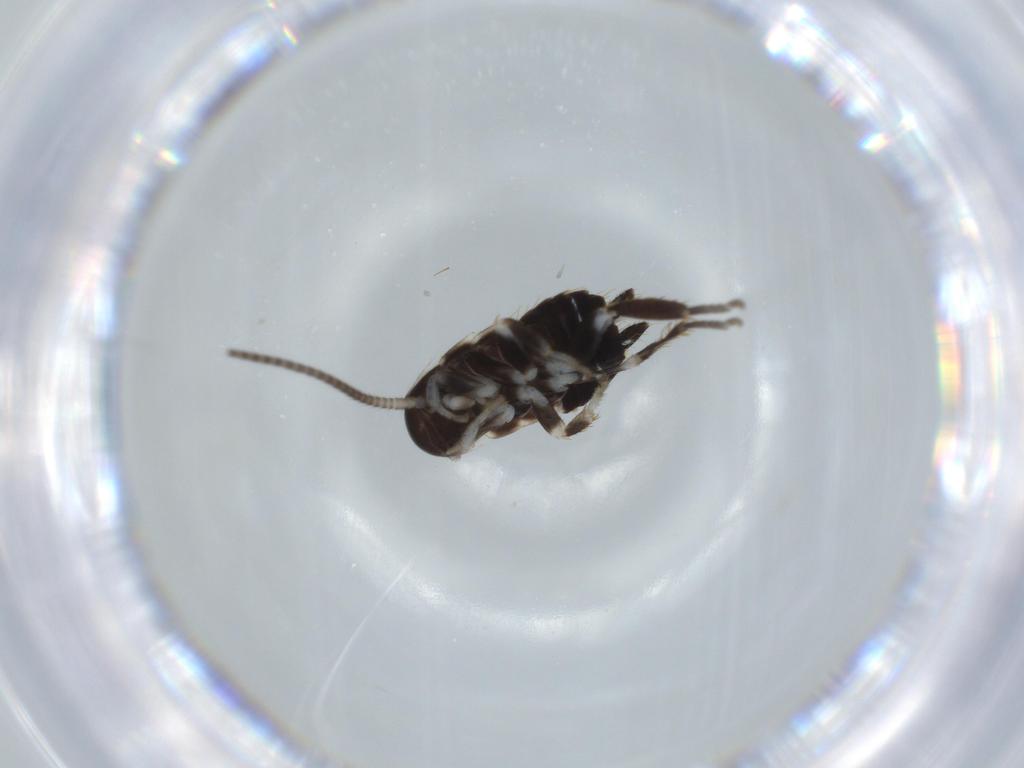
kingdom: Animalia
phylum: Arthropoda
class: Insecta
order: Blattodea
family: Ectobiidae
